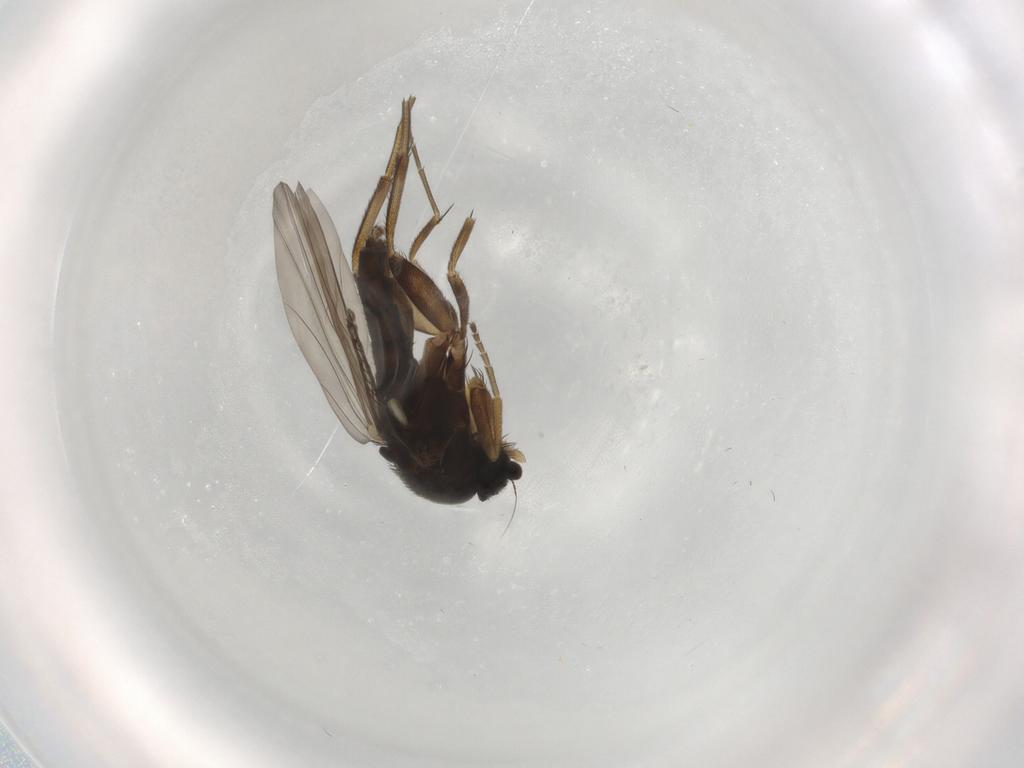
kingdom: Animalia
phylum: Arthropoda
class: Insecta
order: Diptera
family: Phoridae
